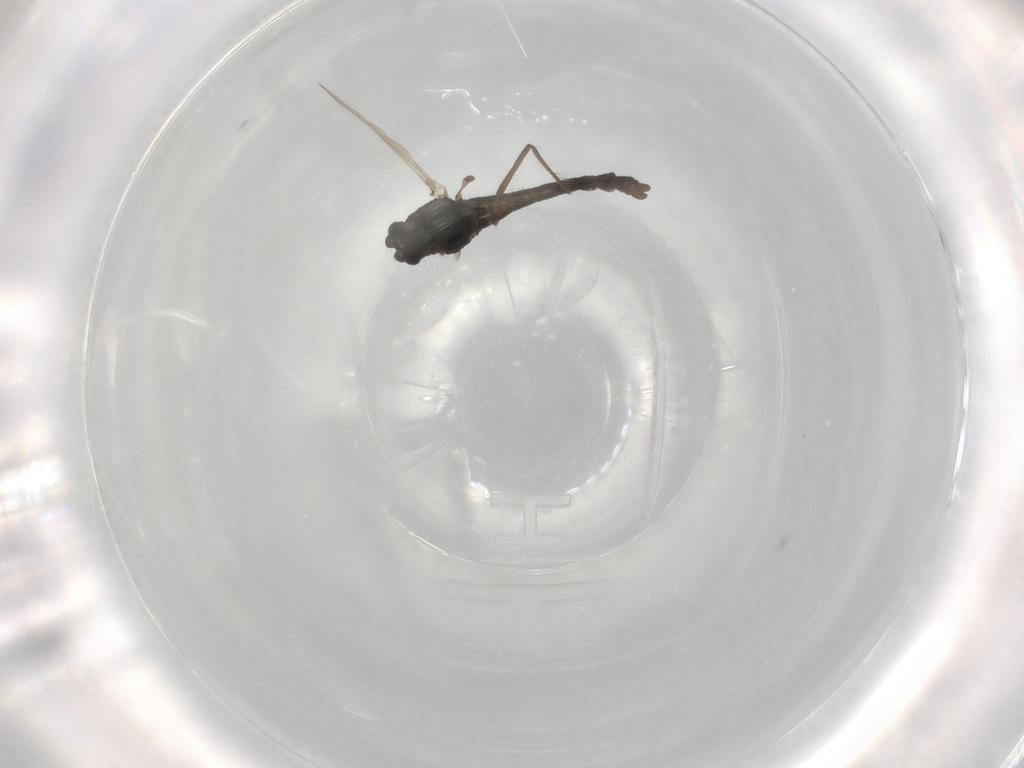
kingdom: Animalia
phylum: Arthropoda
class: Insecta
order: Diptera
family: Chironomidae
